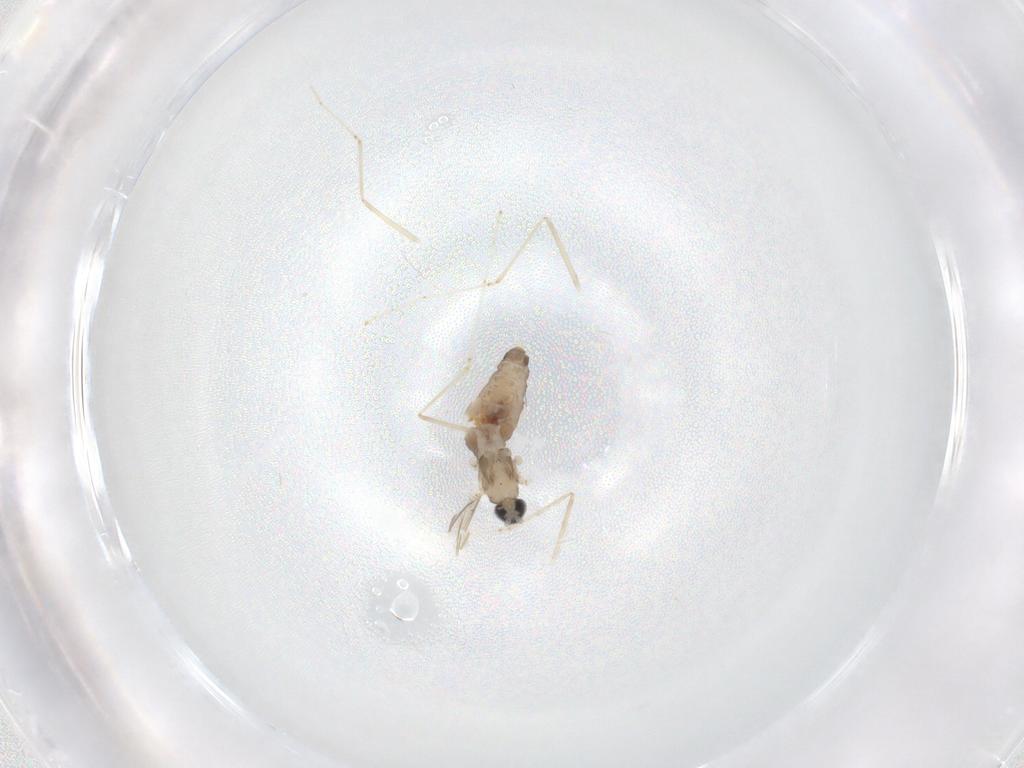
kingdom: Animalia
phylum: Arthropoda
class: Insecta
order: Diptera
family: Cecidomyiidae
